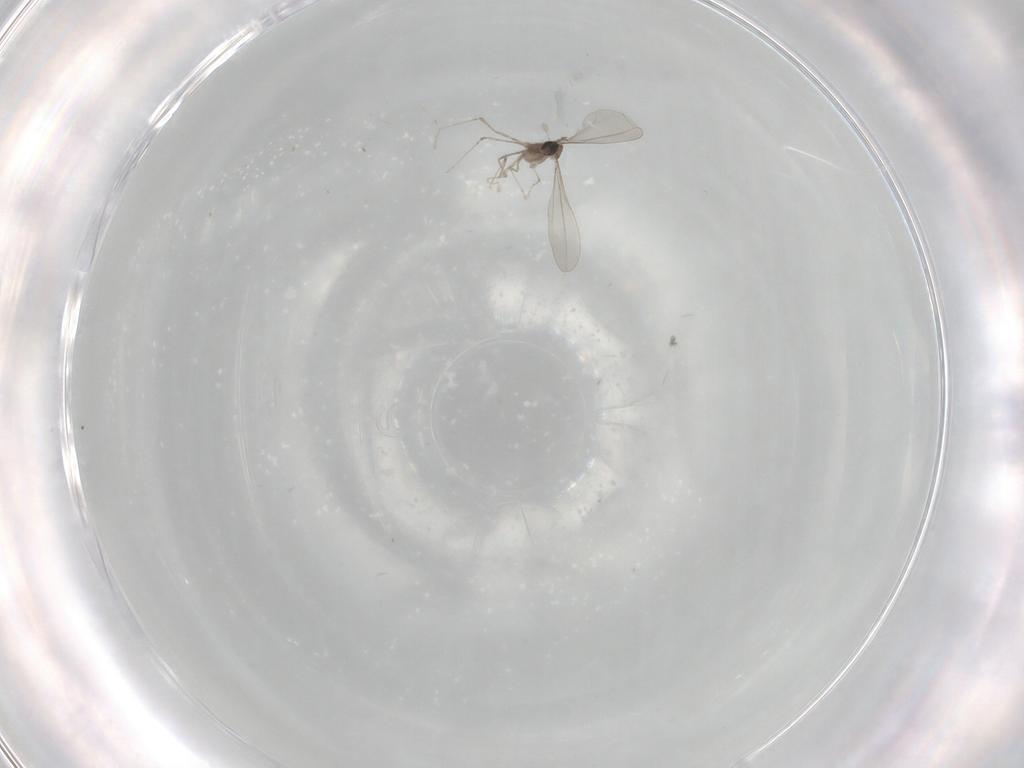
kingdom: Animalia
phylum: Arthropoda
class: Insecta
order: Diptera
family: Cecidomyiidae
